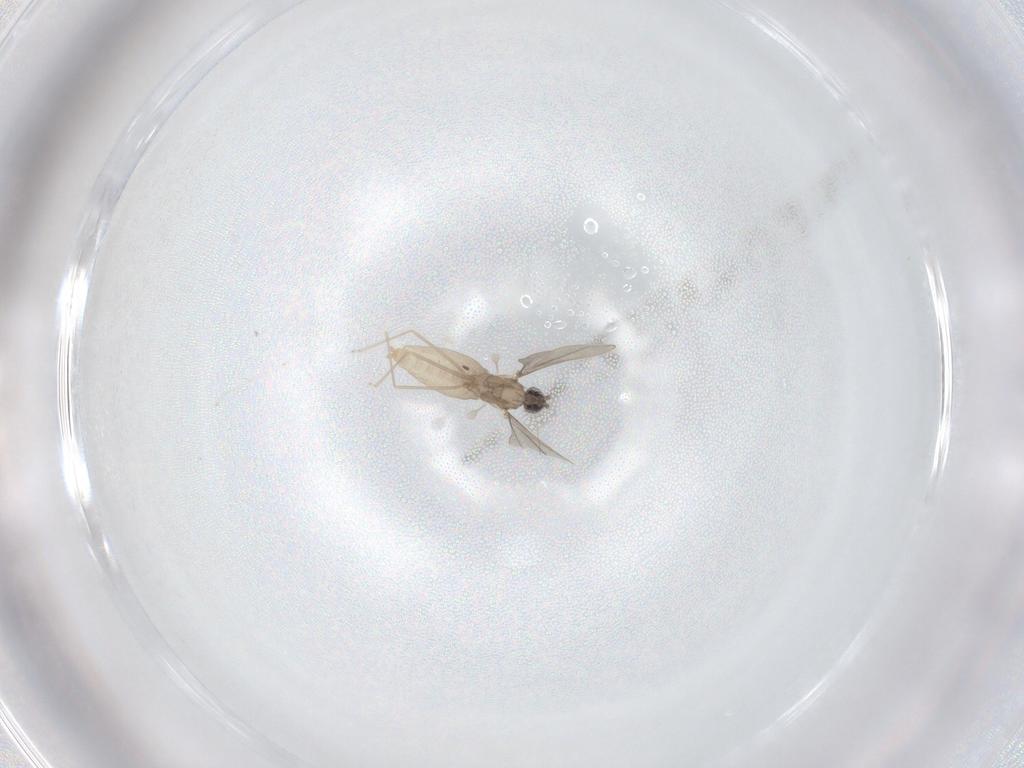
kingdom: Animalia
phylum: Arthropoda
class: Insecta
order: Diptera
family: Cecidomyiidae
